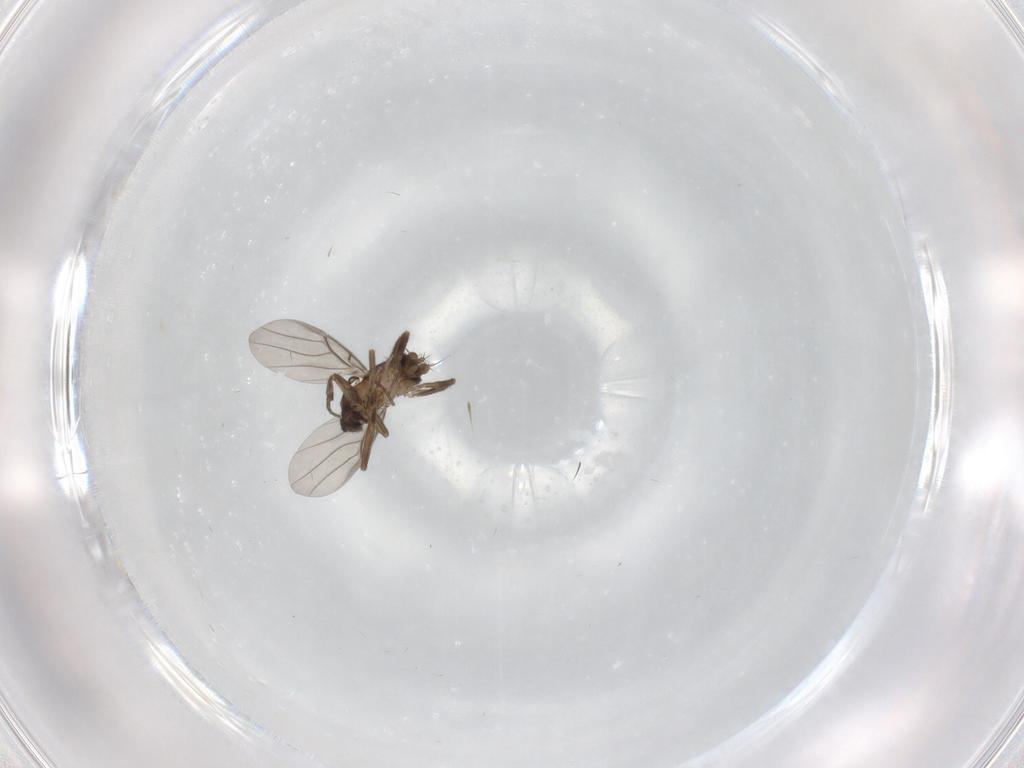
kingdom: Animalia
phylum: Arthropoda
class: Insecta
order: Diptera
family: Phoridae
